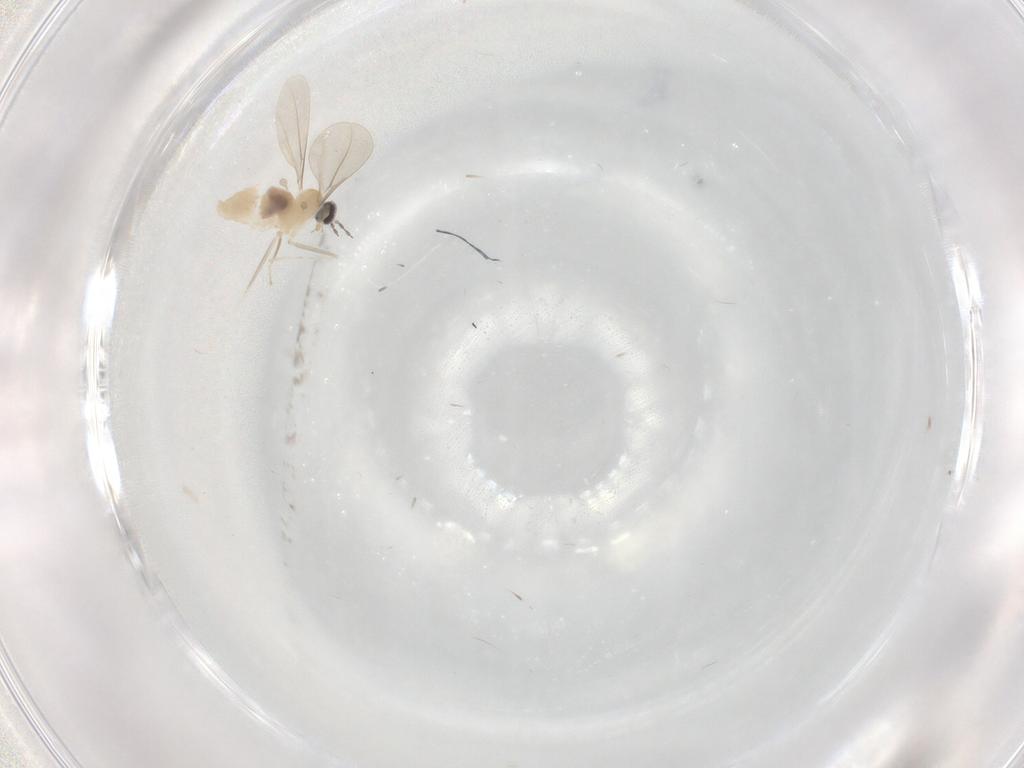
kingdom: Animalia
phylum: Arthropoda
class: Insecta
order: Diptera
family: Cecidomyiidae
